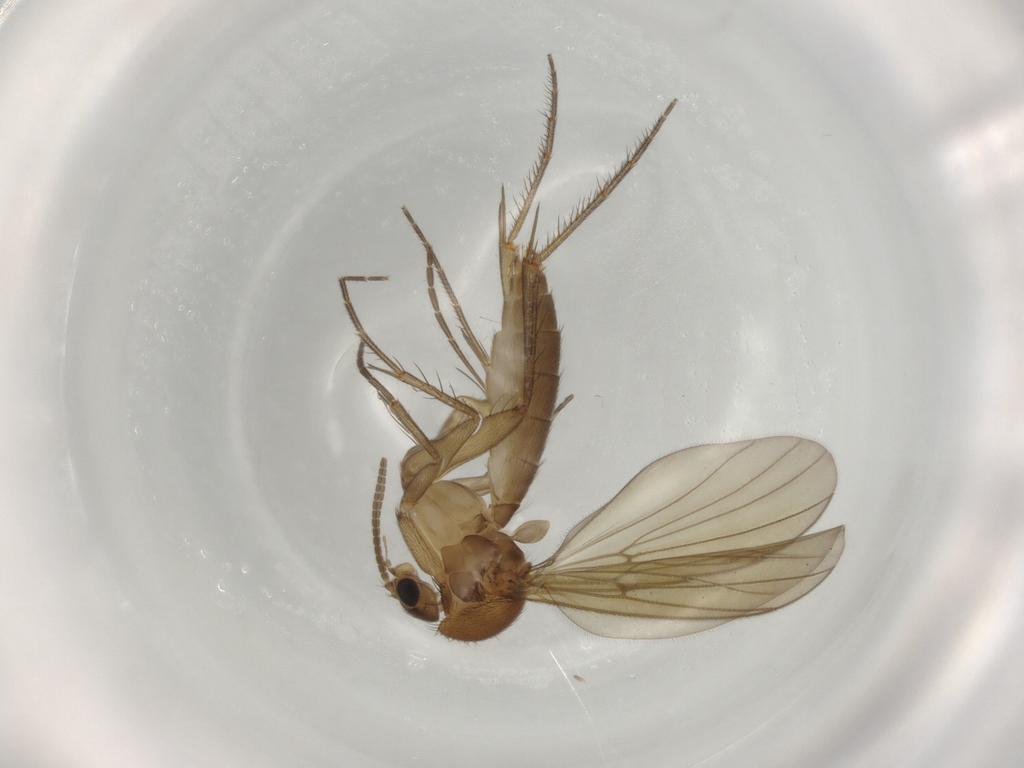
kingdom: Animalia
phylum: Arthropoda
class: Insecta
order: Diptera
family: Mycetophilidae
